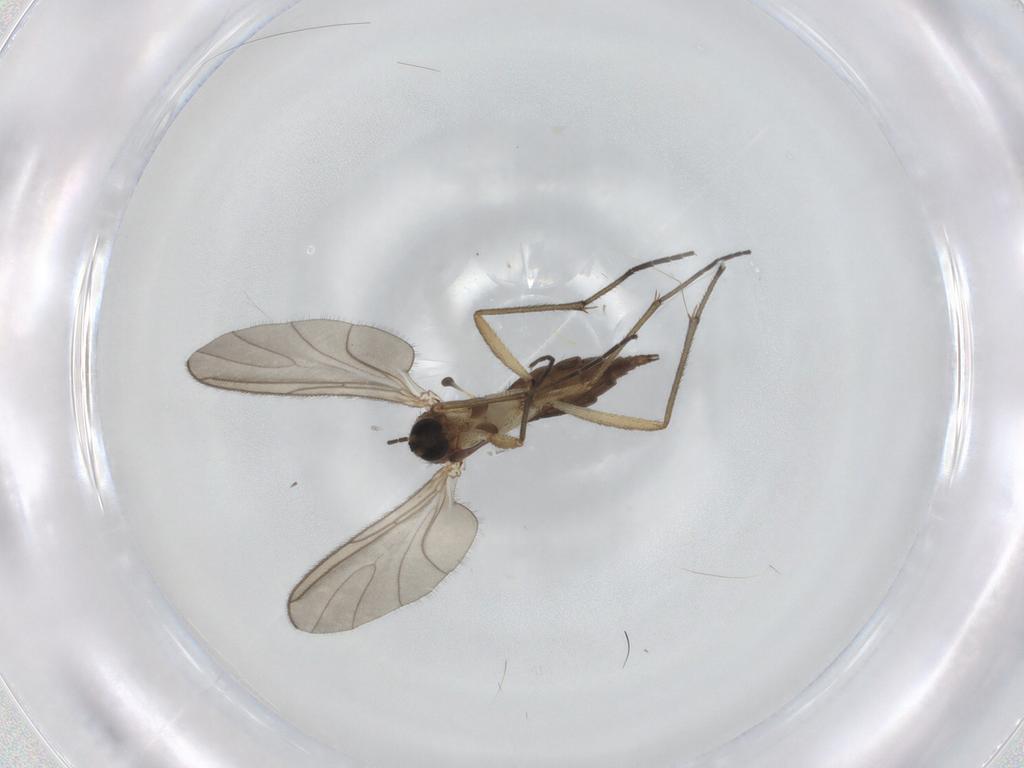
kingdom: Animalia
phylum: Arthropoda
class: Insecta
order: Diptera
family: Sciaridae
